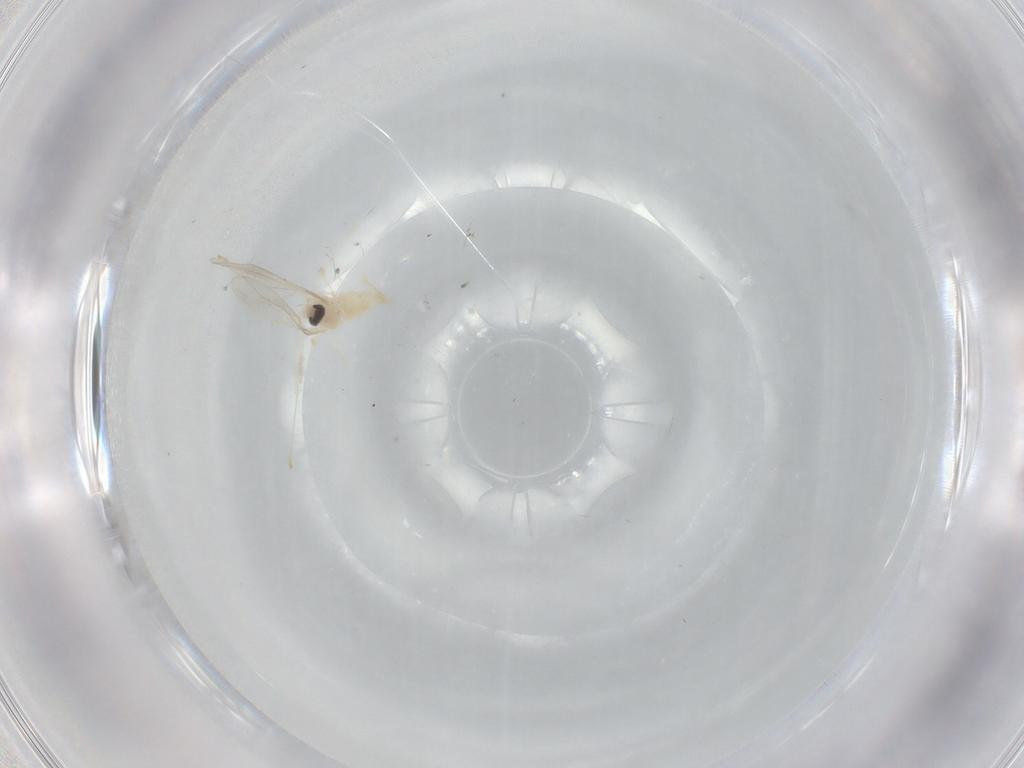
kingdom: Animalia
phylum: Arthropoda
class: Insecta
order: Diptera
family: Cecidomyiidae
